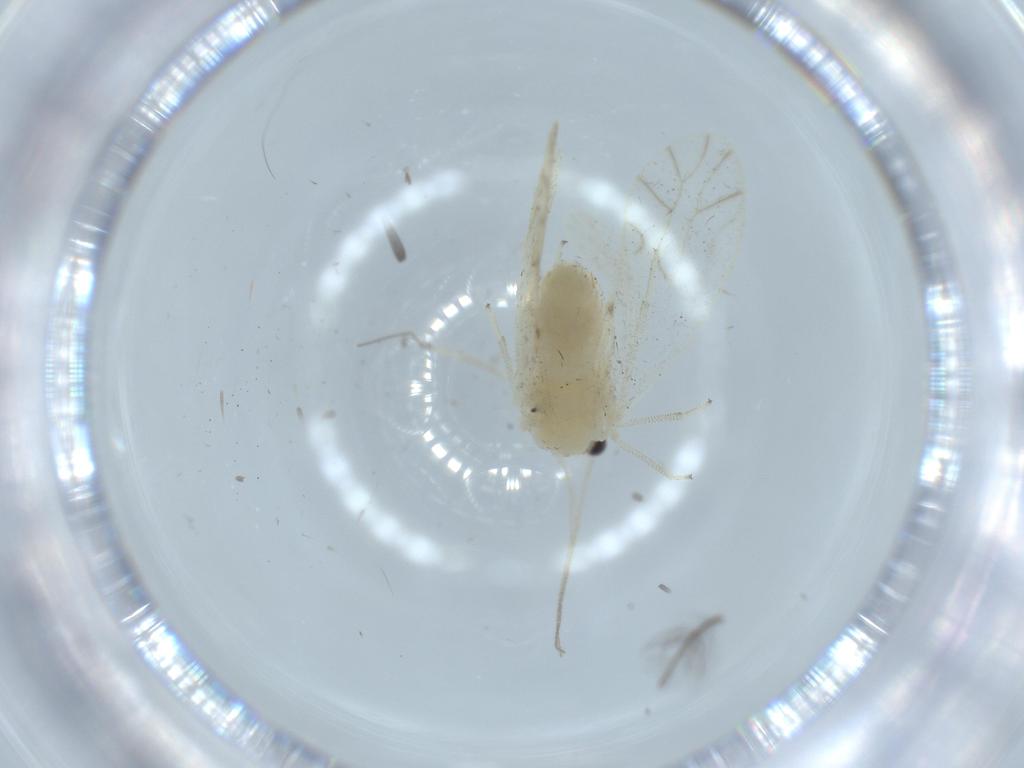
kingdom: Animalia
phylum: Arthropoda
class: Insecta
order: Psocodea
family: Caeciliusidae
